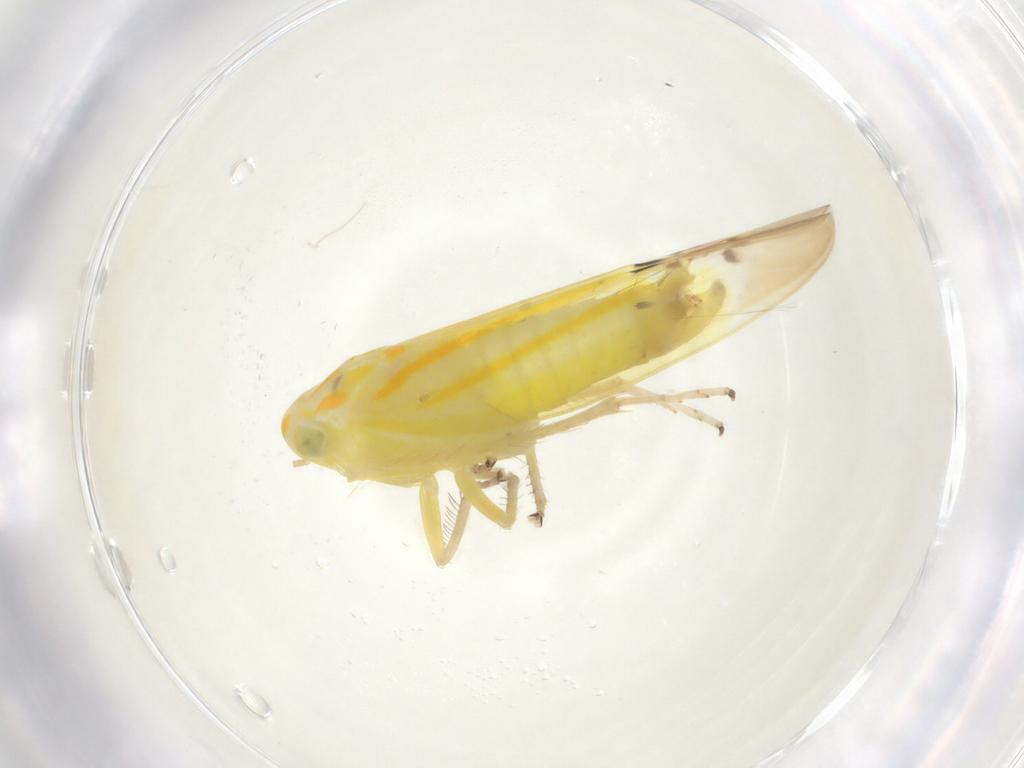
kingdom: Animalia
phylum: Arthropoda
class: Insecta
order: Hemiptera
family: Cicadellidae
